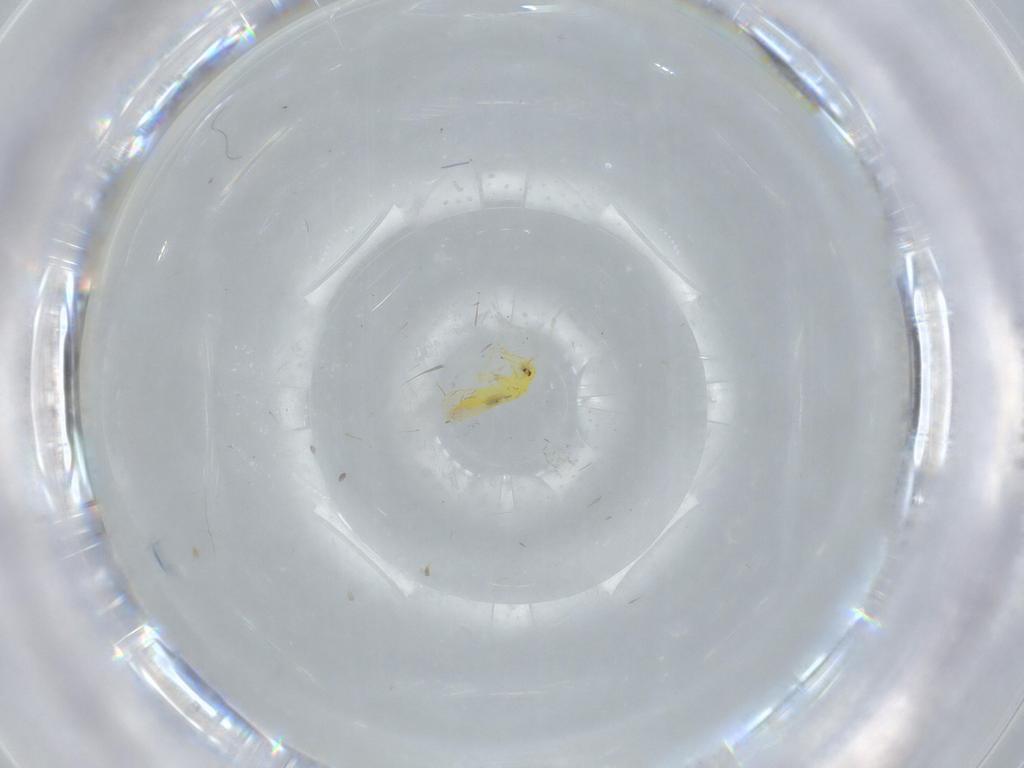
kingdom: Animalia
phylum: Arthropoda
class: Insecta
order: Hemiptera
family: Aleyrodidae
